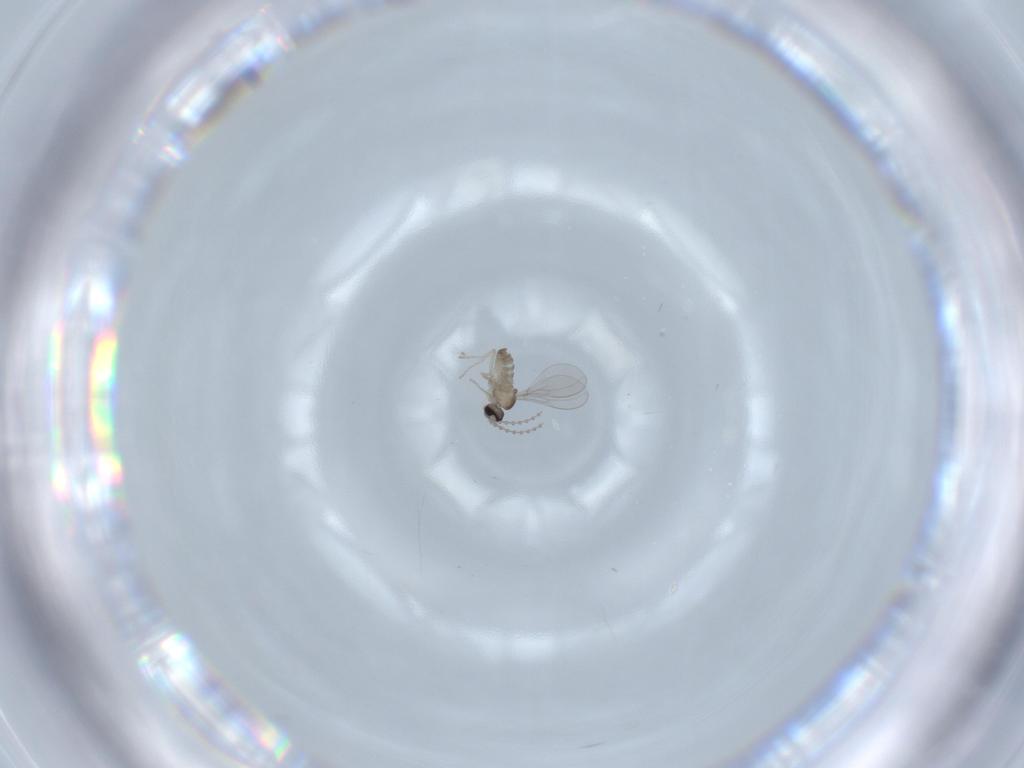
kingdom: Animalia
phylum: Arthropoda
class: Insecta
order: Diptera
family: Cecidomyiidae
